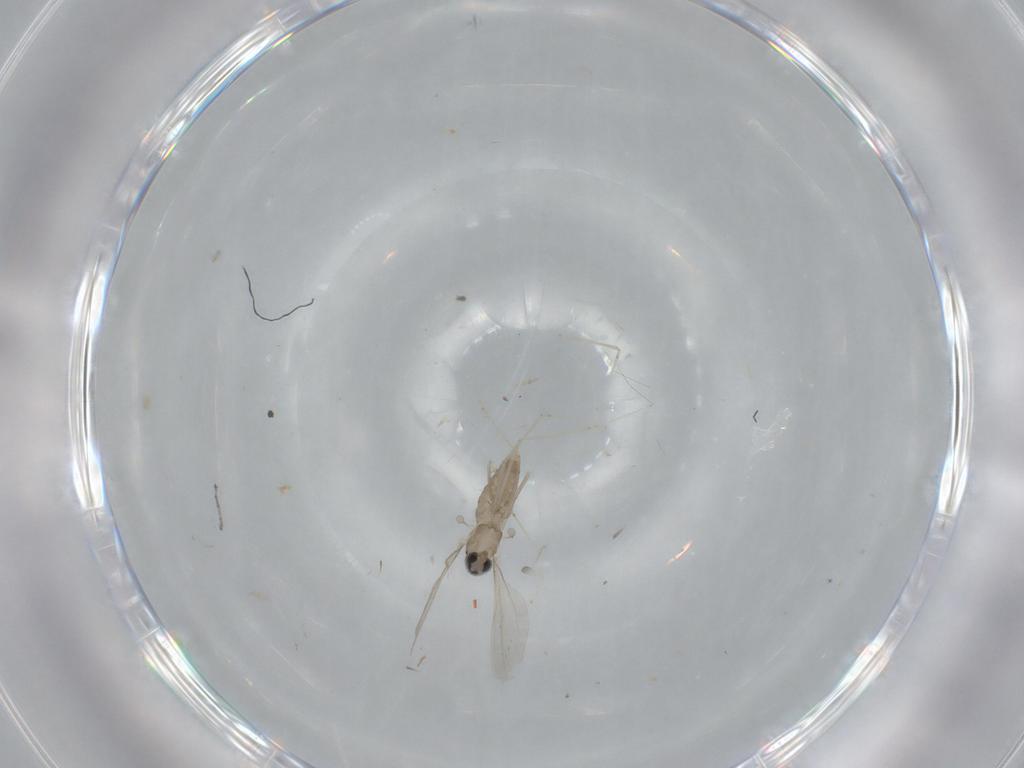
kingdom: Animalia
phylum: Arthropoda
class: Insecta
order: Diptera
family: Cecidomyiidae
